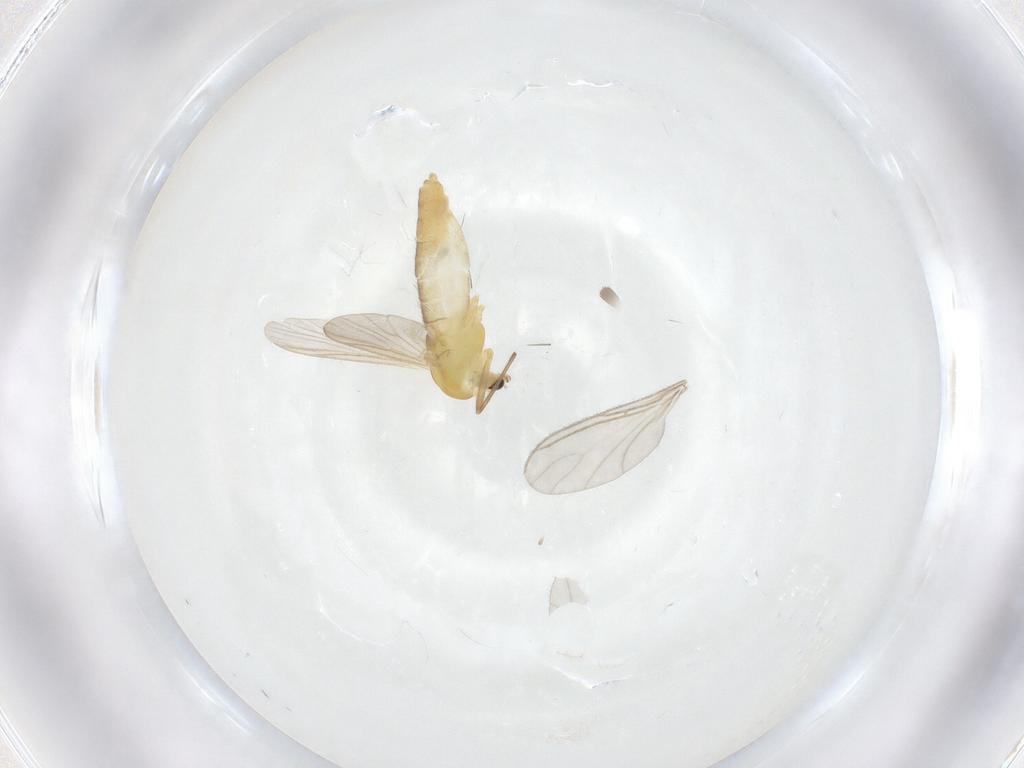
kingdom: Animalia
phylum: Arthropoda
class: Insecta
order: Diptera
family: Chironomidae
